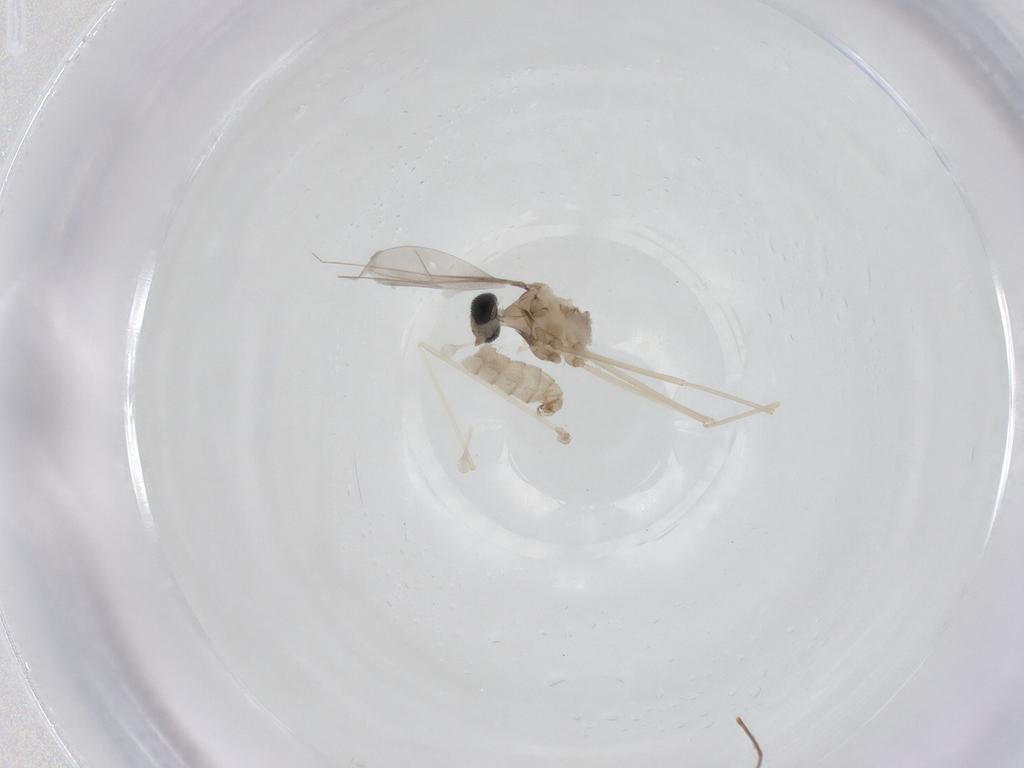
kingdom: Animalia
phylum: Arthropoda
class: Insecta
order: Diptera
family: Cecidomyiidae
